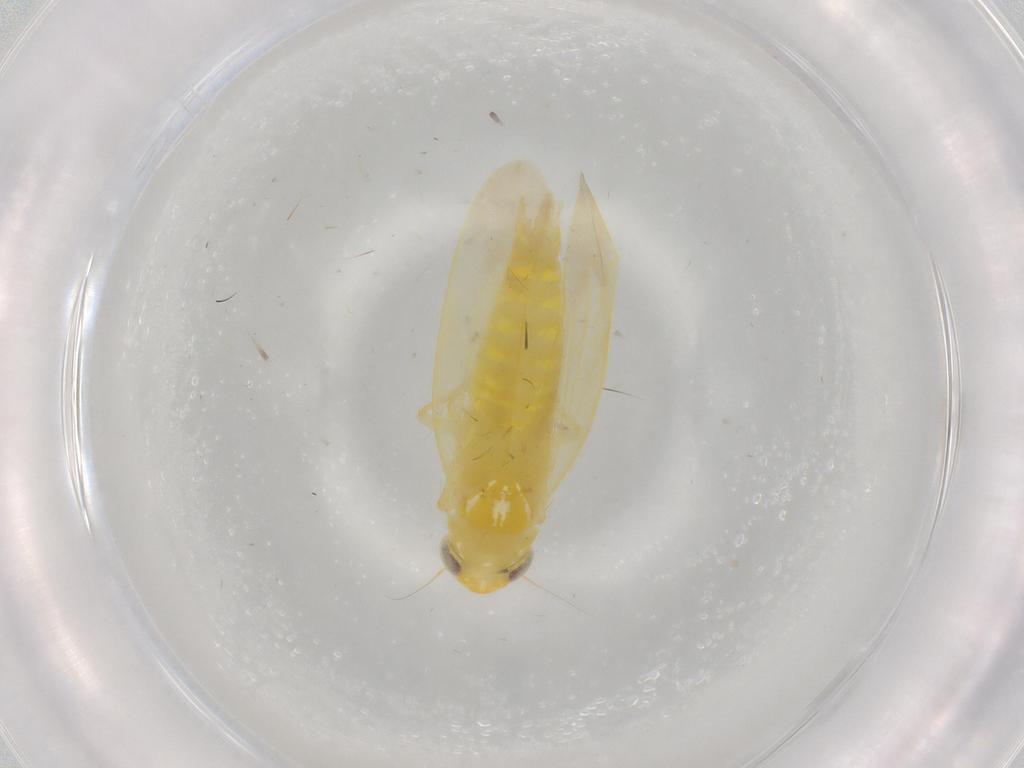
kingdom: Animalia
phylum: Arthropoda
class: Insecta
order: Hemiptera
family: Cicadellidae
